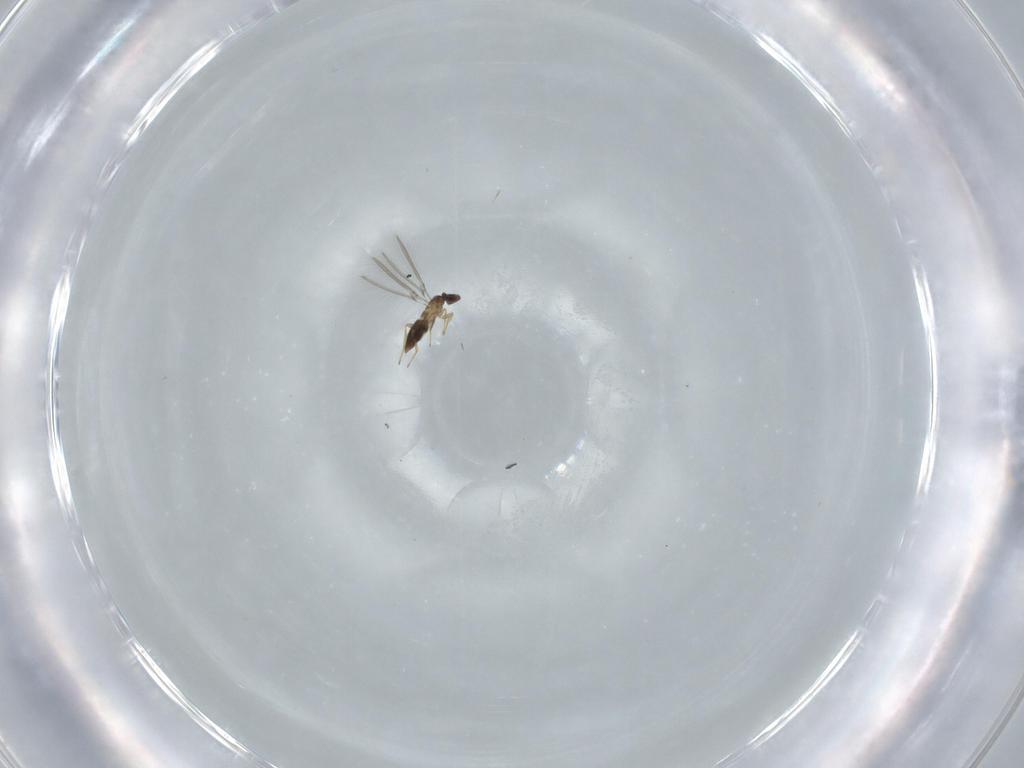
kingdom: Animalia
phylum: Arthropoda
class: Insecta
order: Hymenoptera
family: Mymaridae
